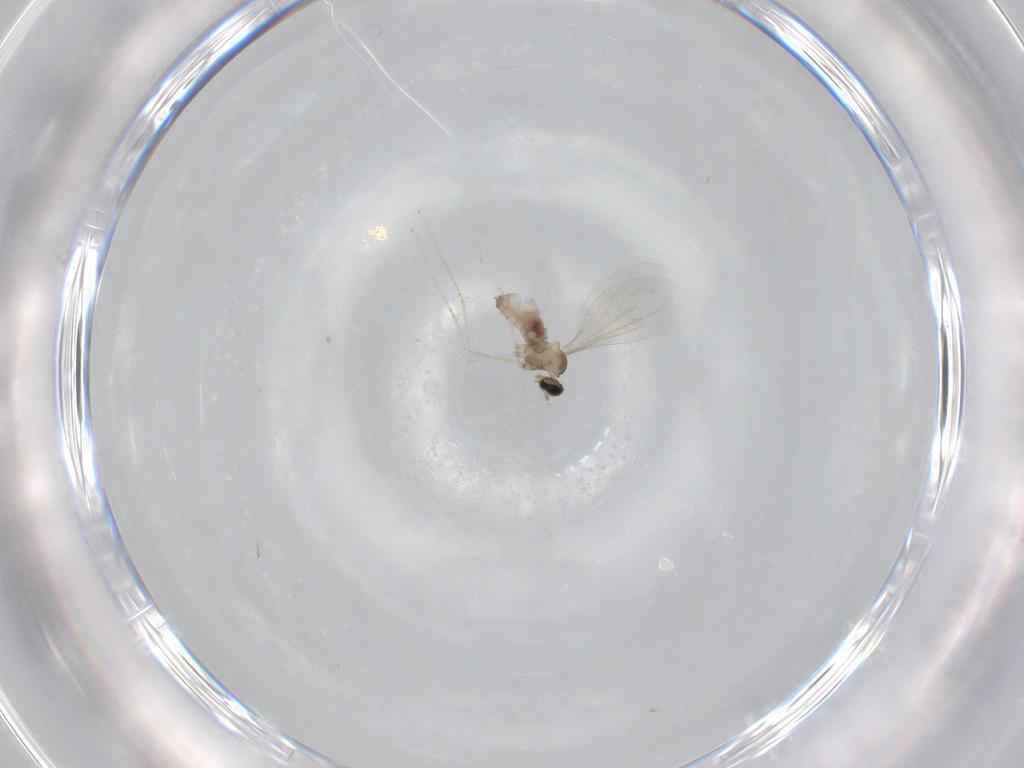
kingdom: Animalia
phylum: Arthropoda
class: Insecta
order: Diptera
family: Cecidomyiidae
